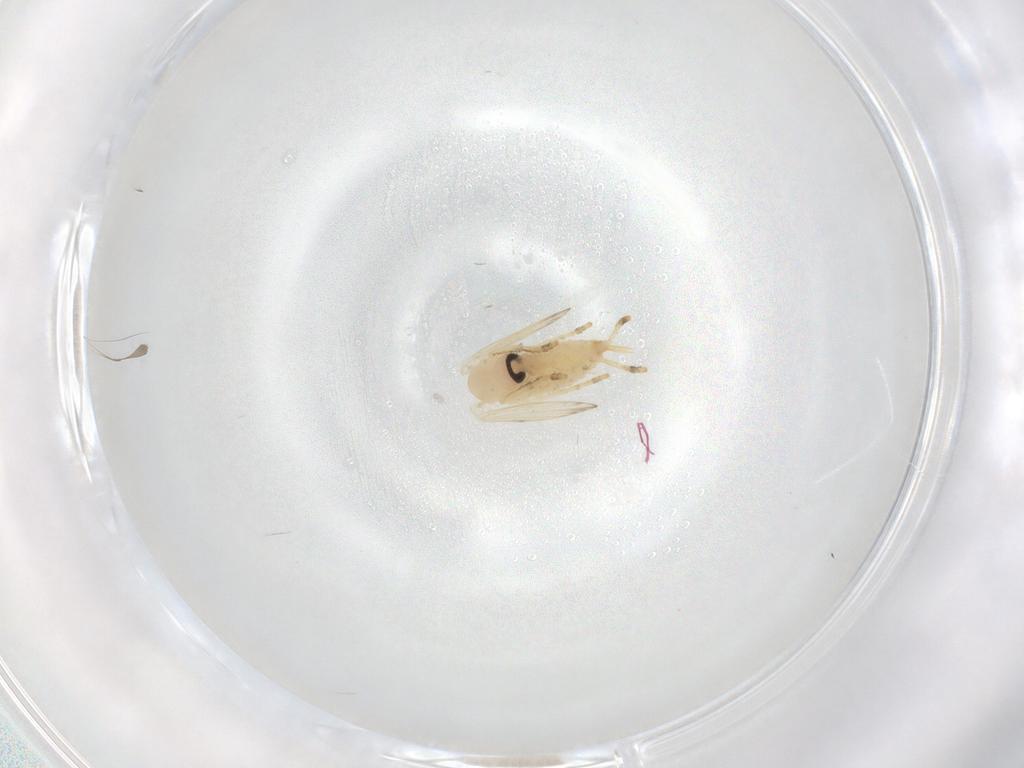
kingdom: Animalia
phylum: Arthropoda
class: Insecta
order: Diptera
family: Psychodidae
